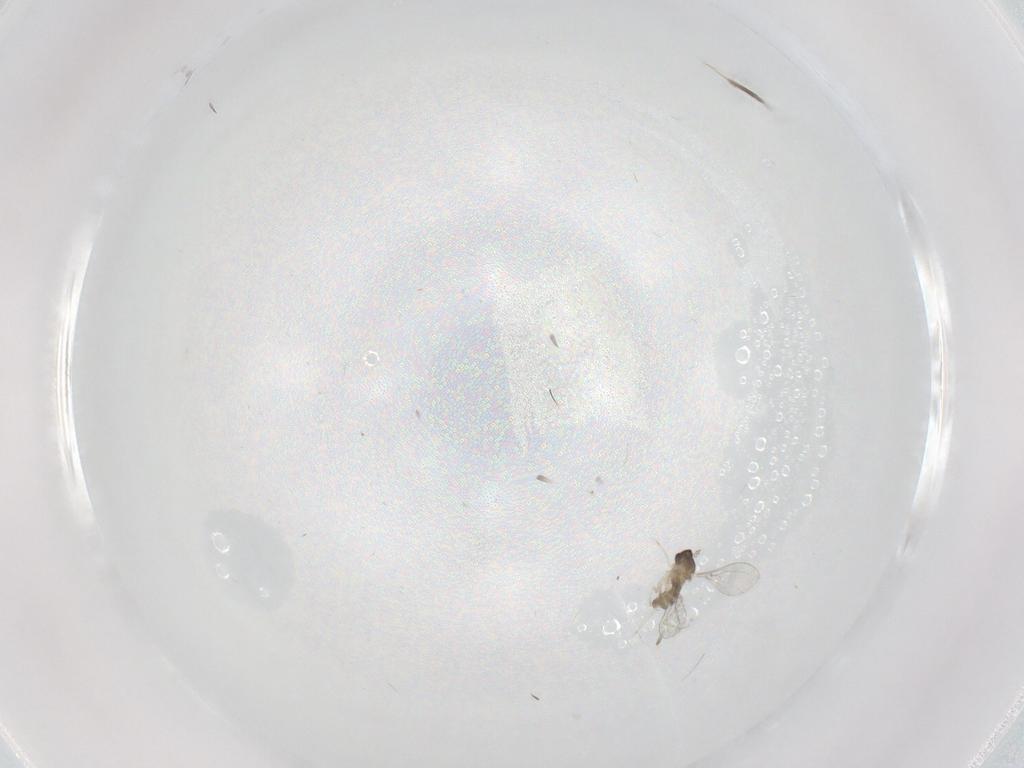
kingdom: Animalia
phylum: Arthropoda
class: Insecta
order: Diptera
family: Cecidomyiidae
